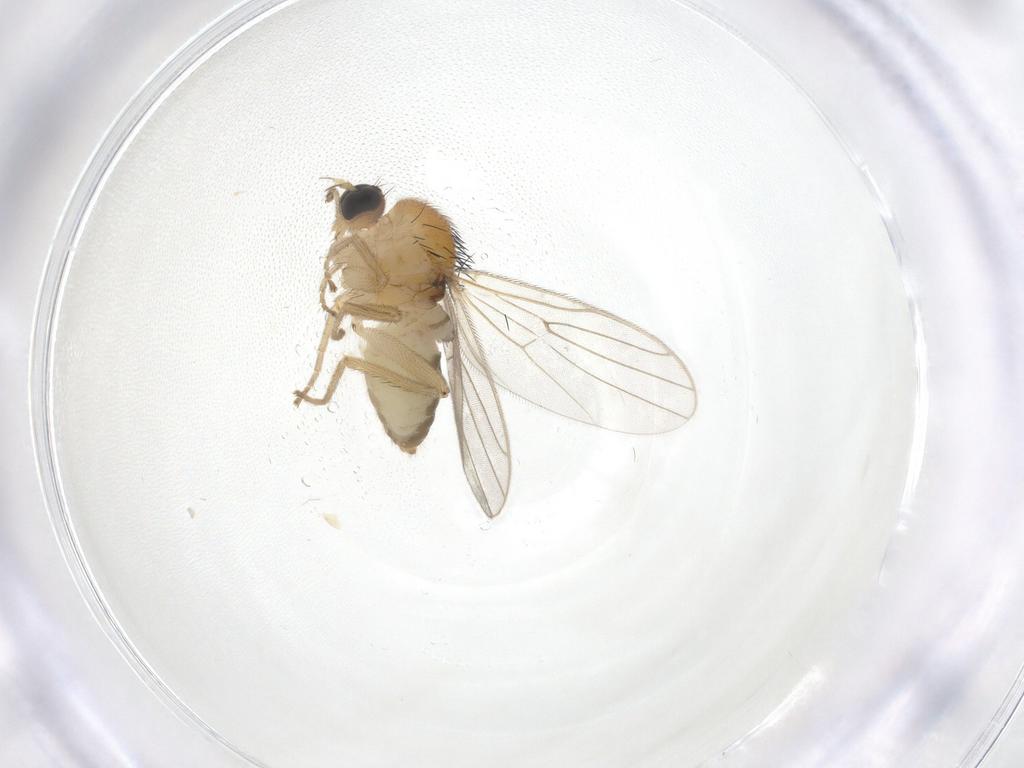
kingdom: Animalia
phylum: Arthropoda
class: Insecta
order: Diptera
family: Hybotidae
